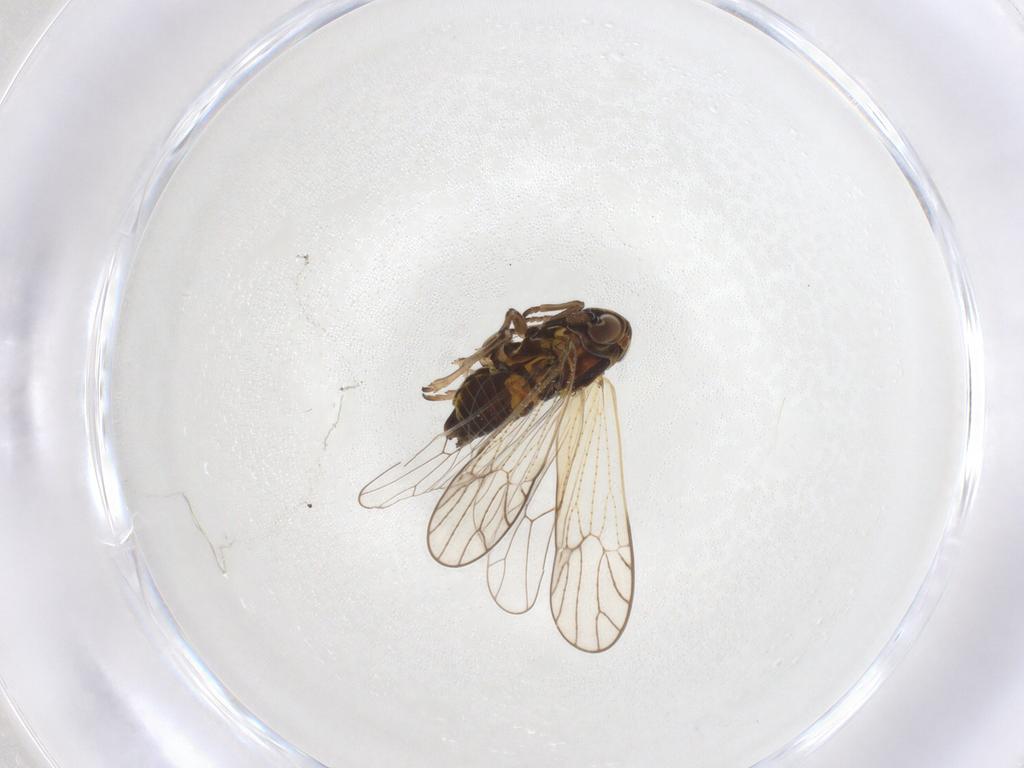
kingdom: Animalia
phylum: Arthropoda
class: Insecta
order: Hemiptera
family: Delphacidae
